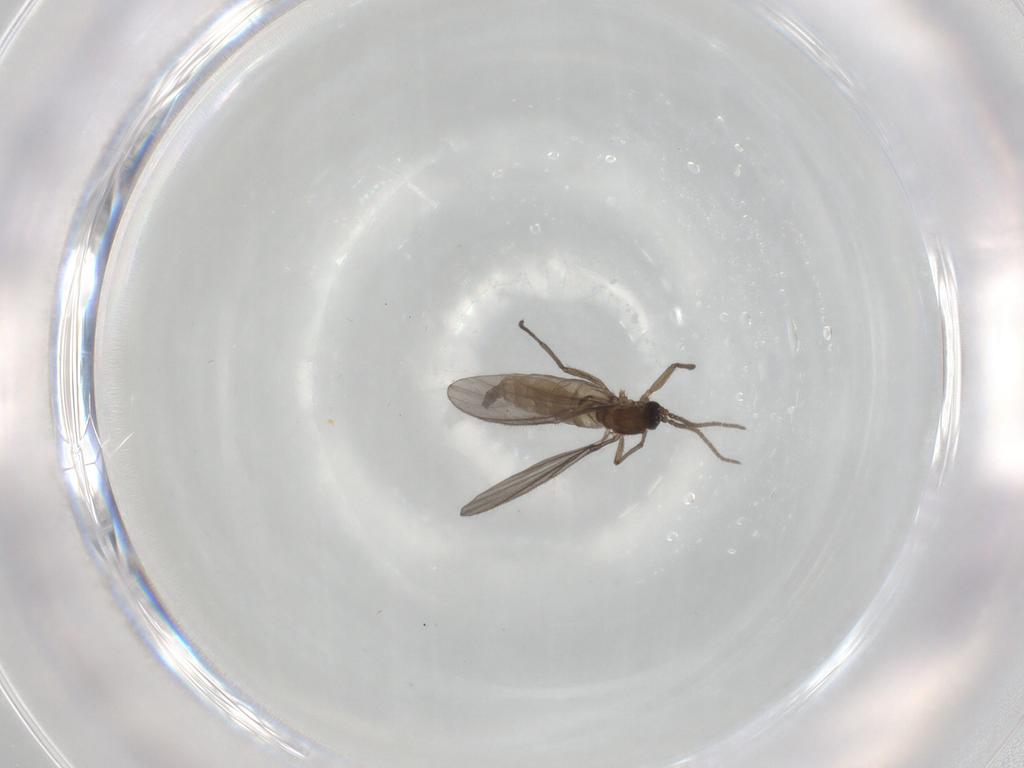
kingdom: Animalia
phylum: Arthropoda
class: Insecta
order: Diptera
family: Sciaridae
